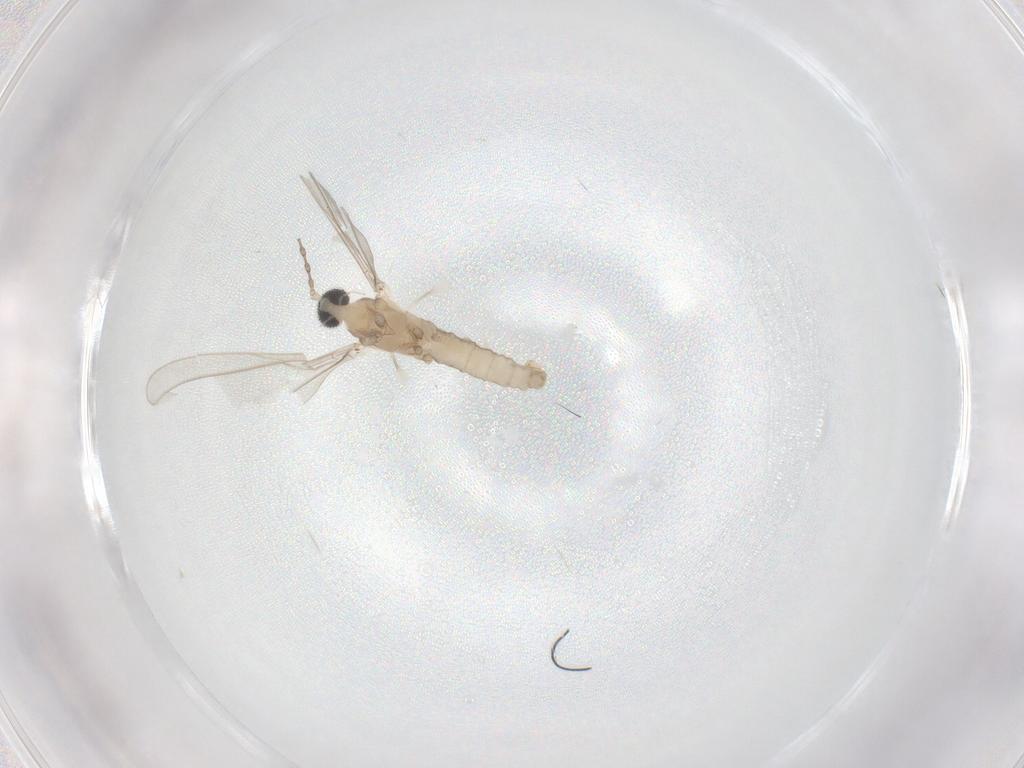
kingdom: Animalia
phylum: Arthropoda
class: Insecta
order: Diptera
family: Cecidomyiidae
